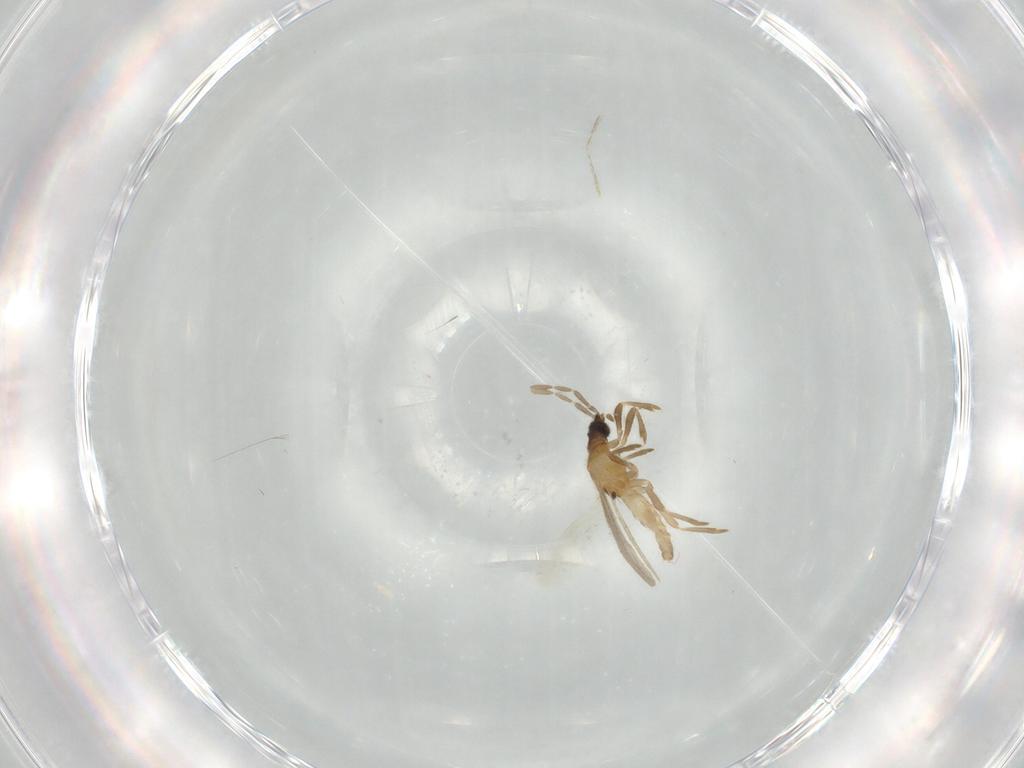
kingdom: Animalia
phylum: Arthropoda
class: Insecta
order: Hemiptera
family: Enicocephalidae
